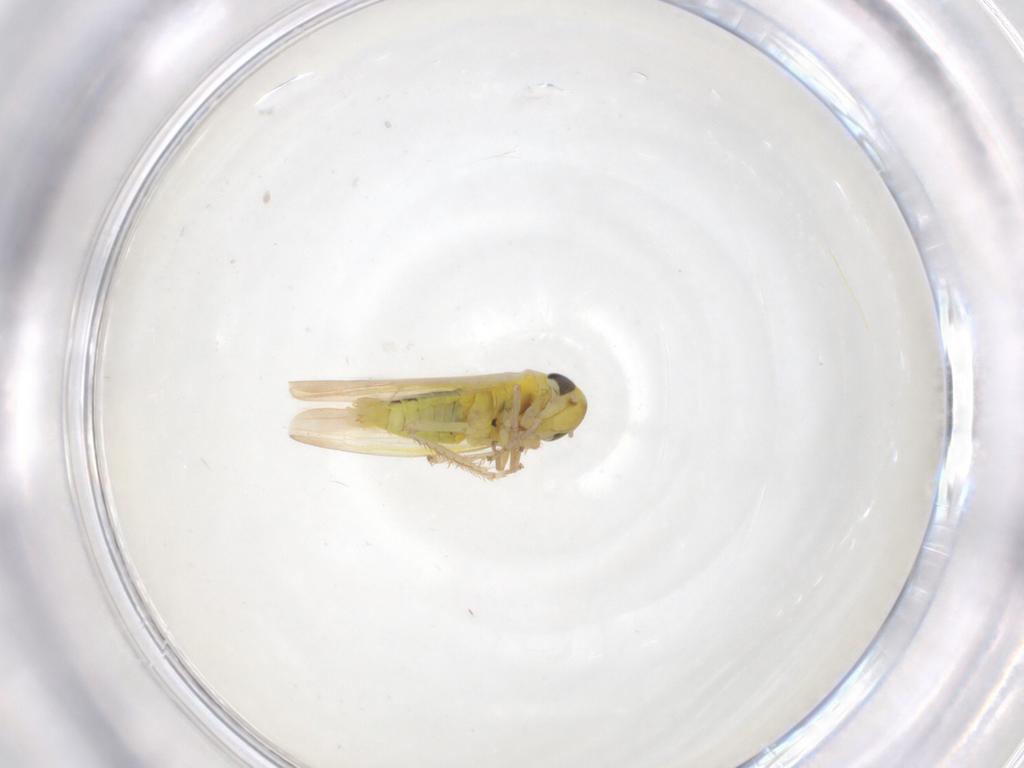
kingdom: Animalia
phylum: Arthropoda
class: Insecta
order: Hemiptera
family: Cicadellidae
